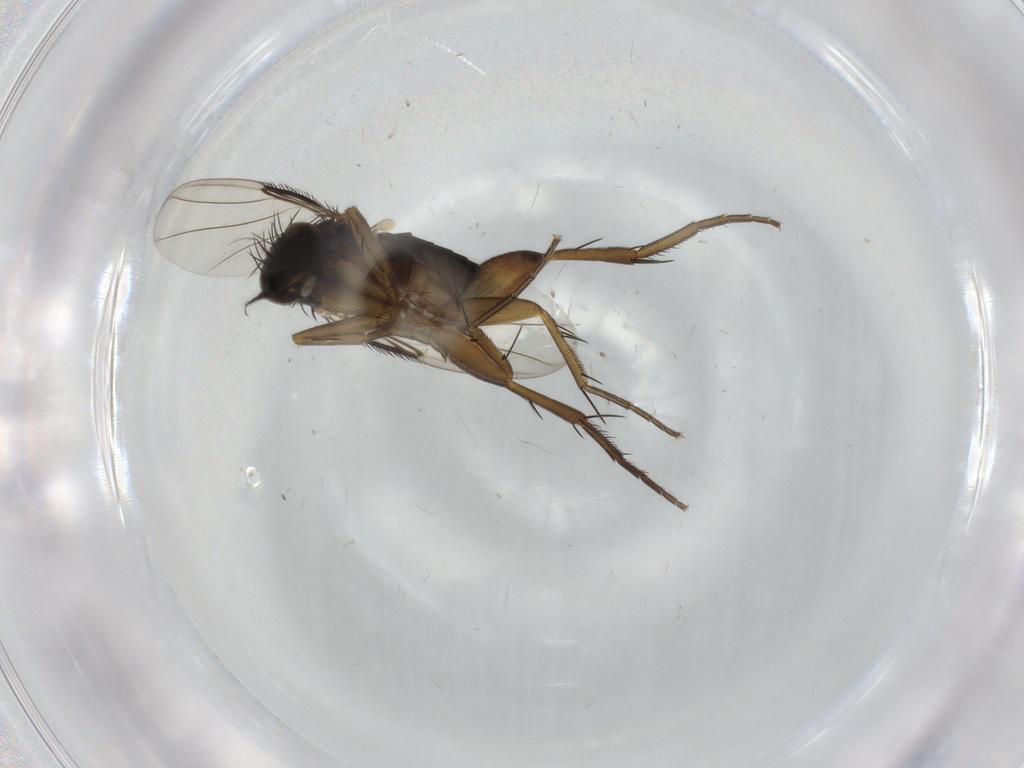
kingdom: Animalia
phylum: Arthropoda
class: Insecta
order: Diptera
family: Phoridae
